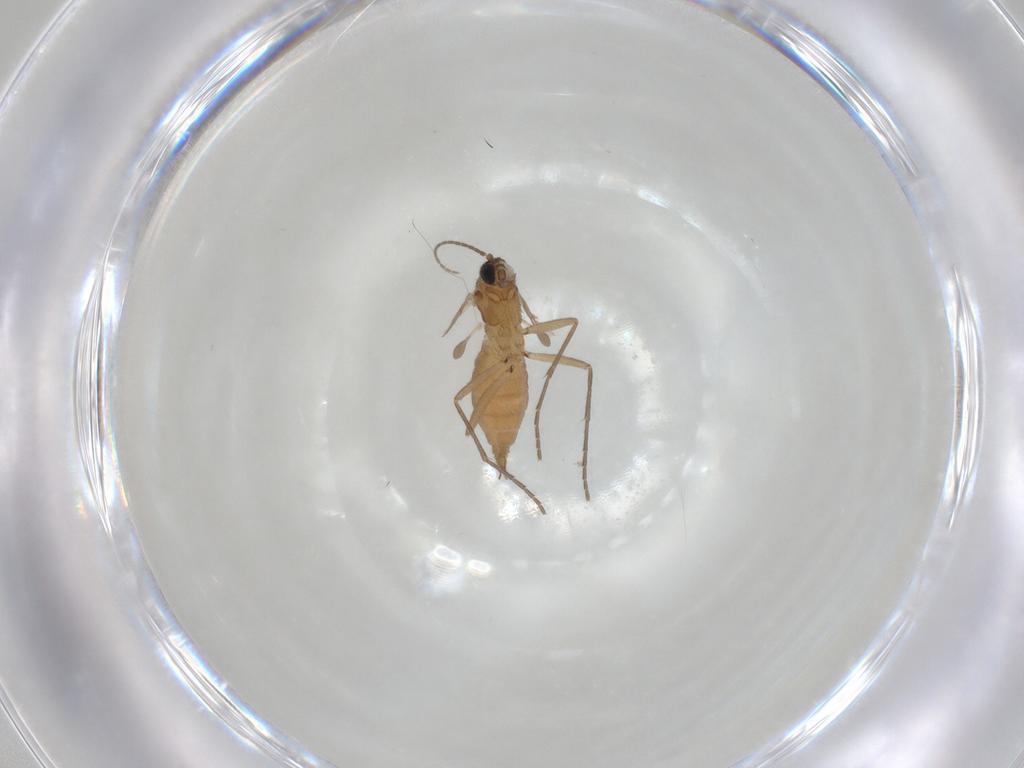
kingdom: Animalia
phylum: Arthropoda
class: Insecta
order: Diptera
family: Sciaridae
